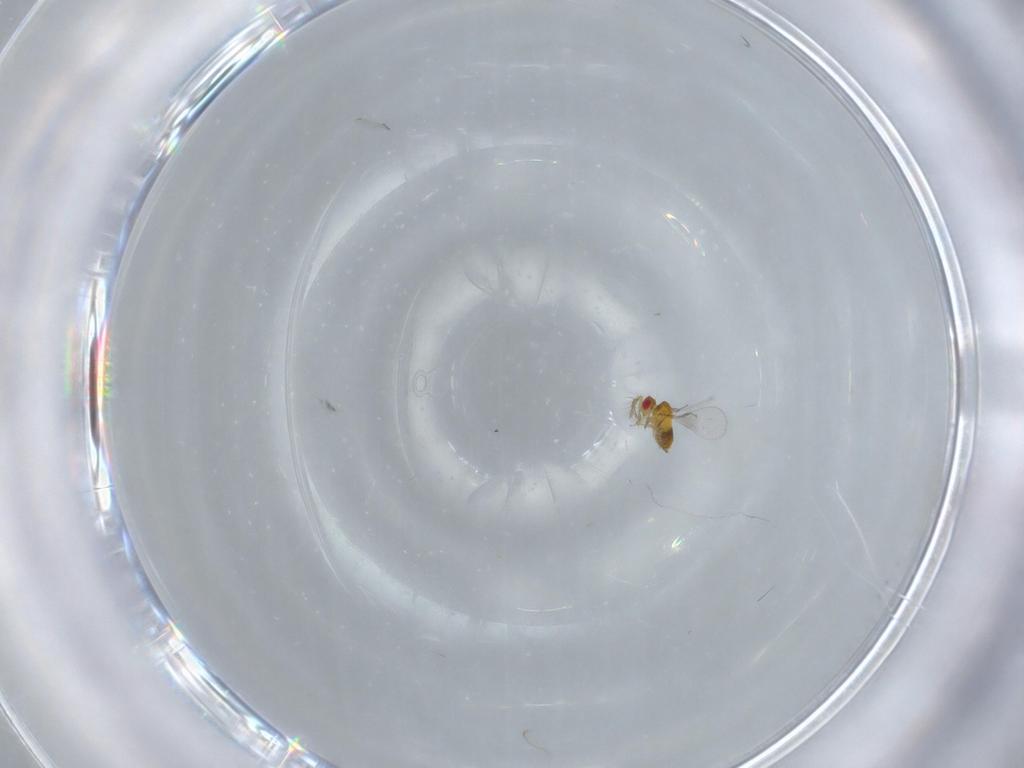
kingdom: Animalia
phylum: Arthropoda
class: Insecta
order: Hymenoptera
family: Trichogrammatidae
